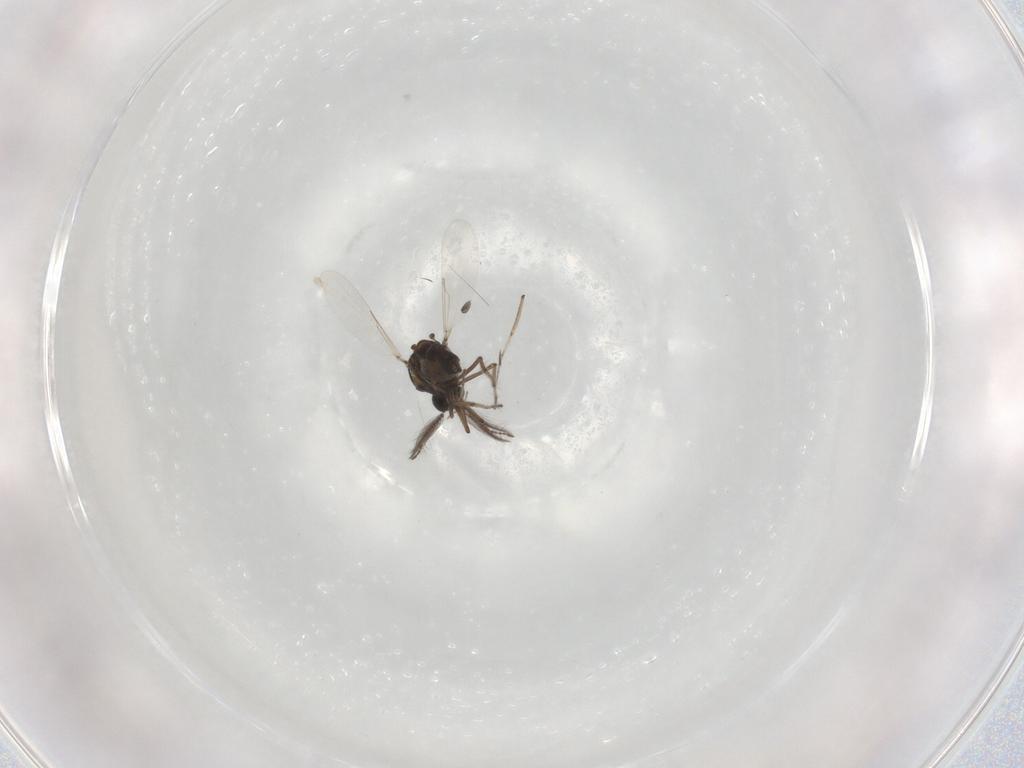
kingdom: Animalia
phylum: Arthropoda
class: Insecta
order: Diptera
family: Ceratopogonidae
